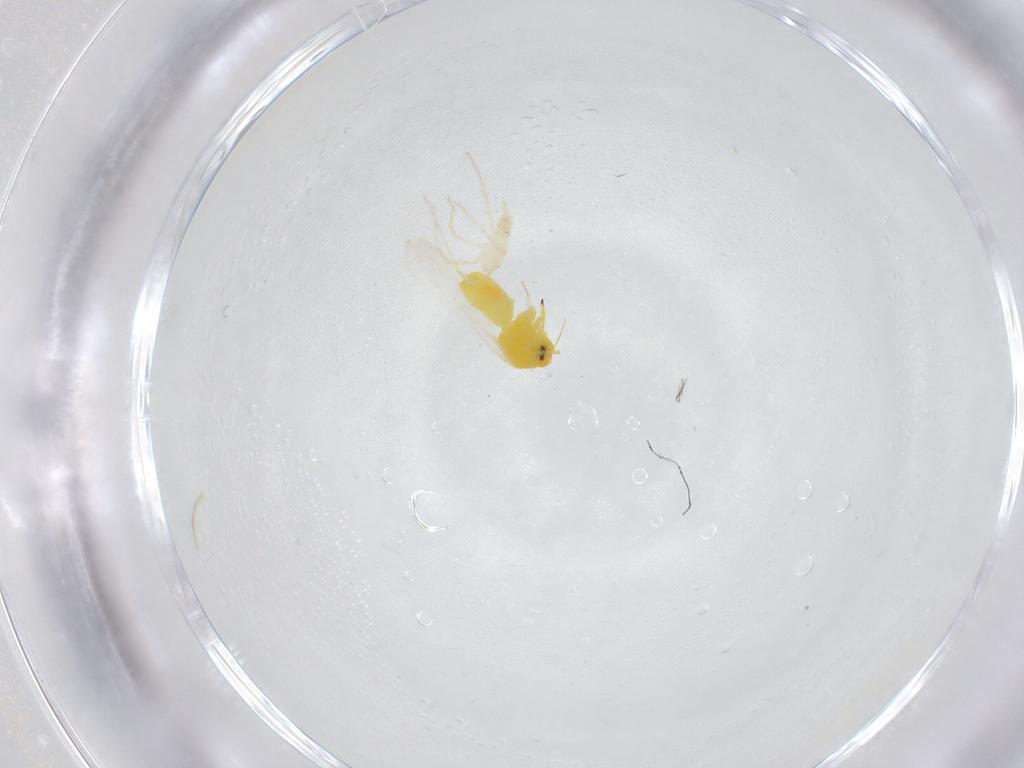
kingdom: Animalia
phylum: Arthropoda
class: Insecta
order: Hemiptera
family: Aleyrodidae
